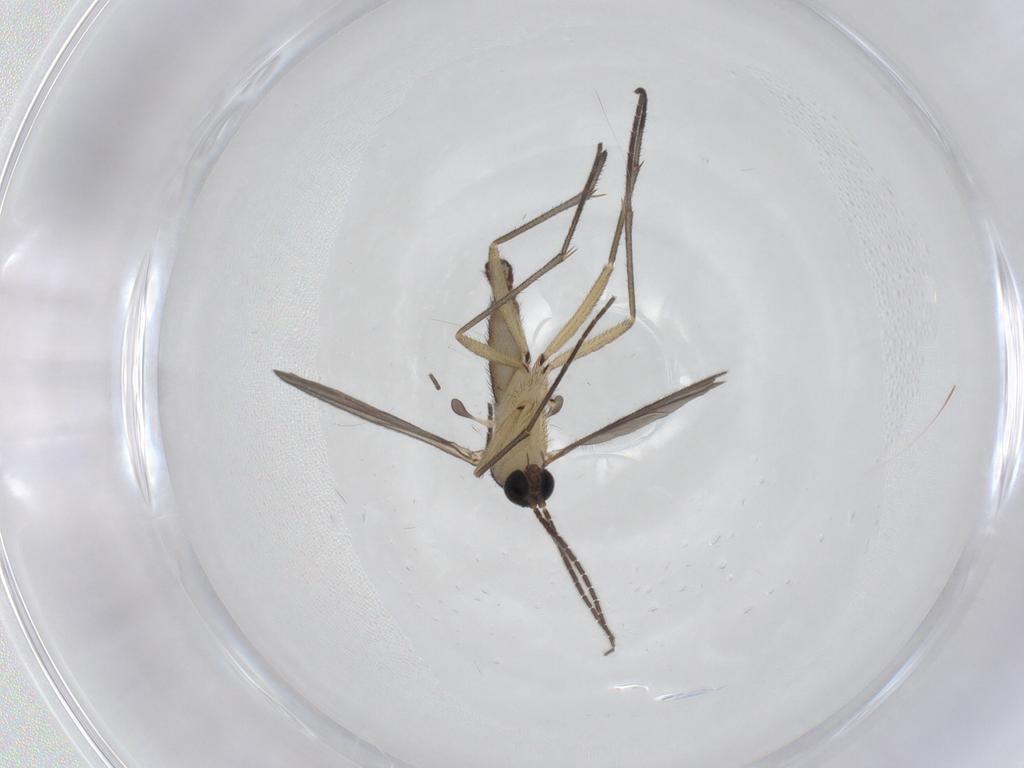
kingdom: Animalia
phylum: Arthropoda
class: Insecta
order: Diptera
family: Sciaridae
